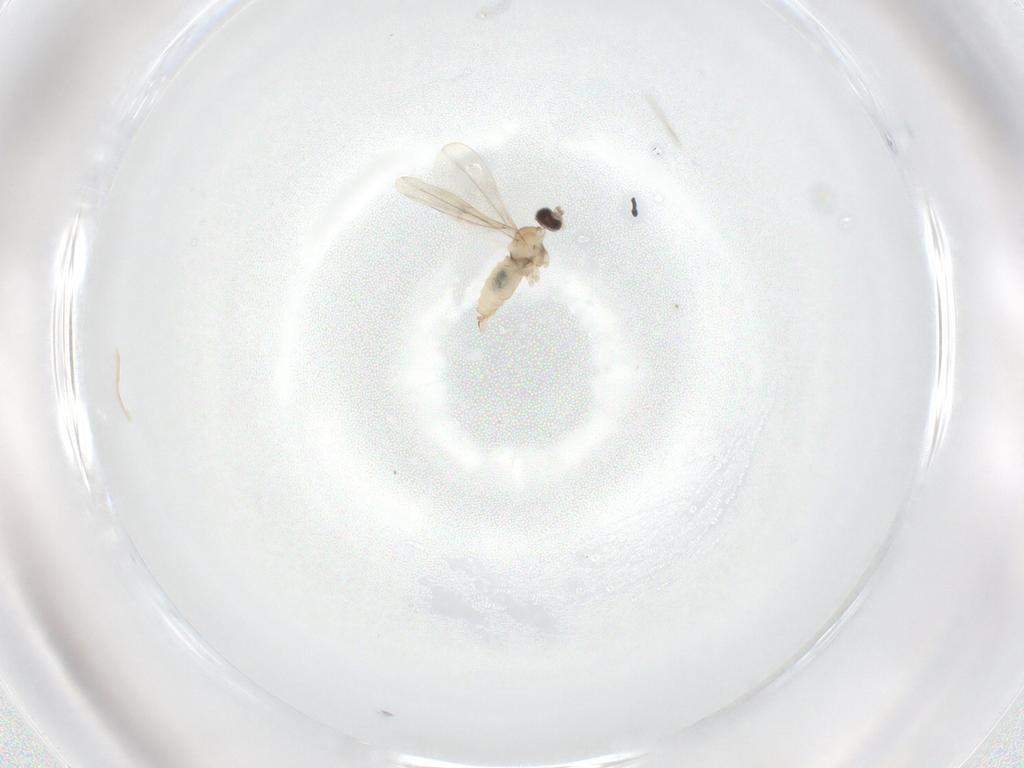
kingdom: Animalia
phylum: Arthropoda
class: Insecta
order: Diptera
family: Cecidomyiidae
